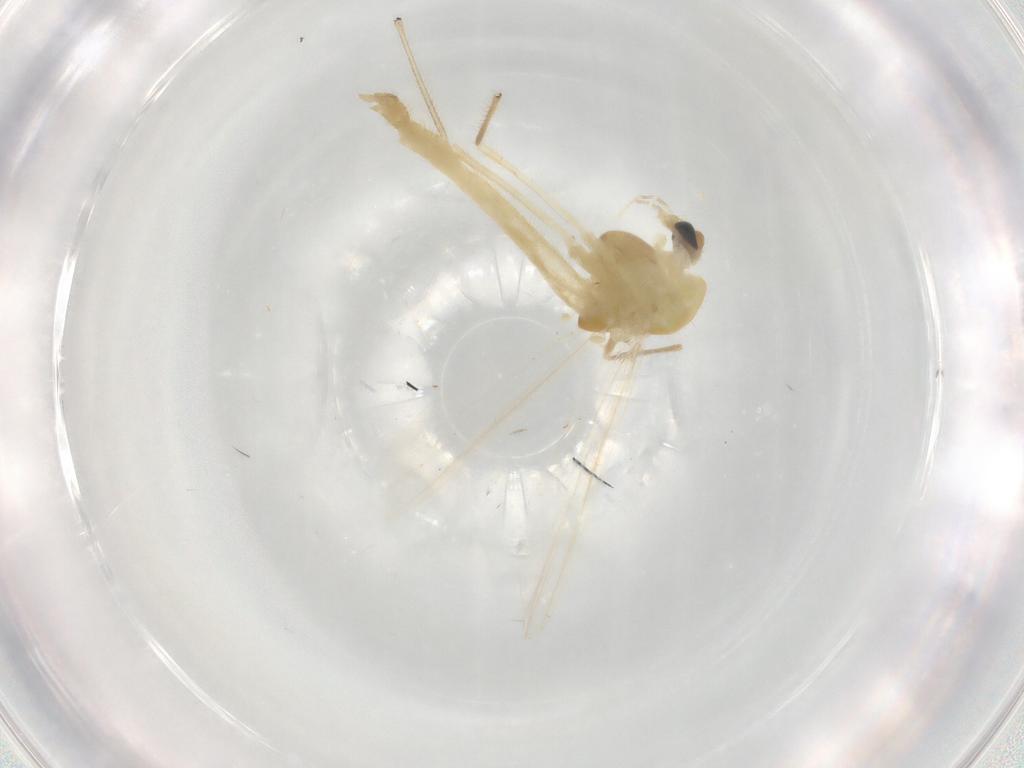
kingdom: Animalia
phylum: Arthropoda
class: Insecta
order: Diptera
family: Chironomidae
